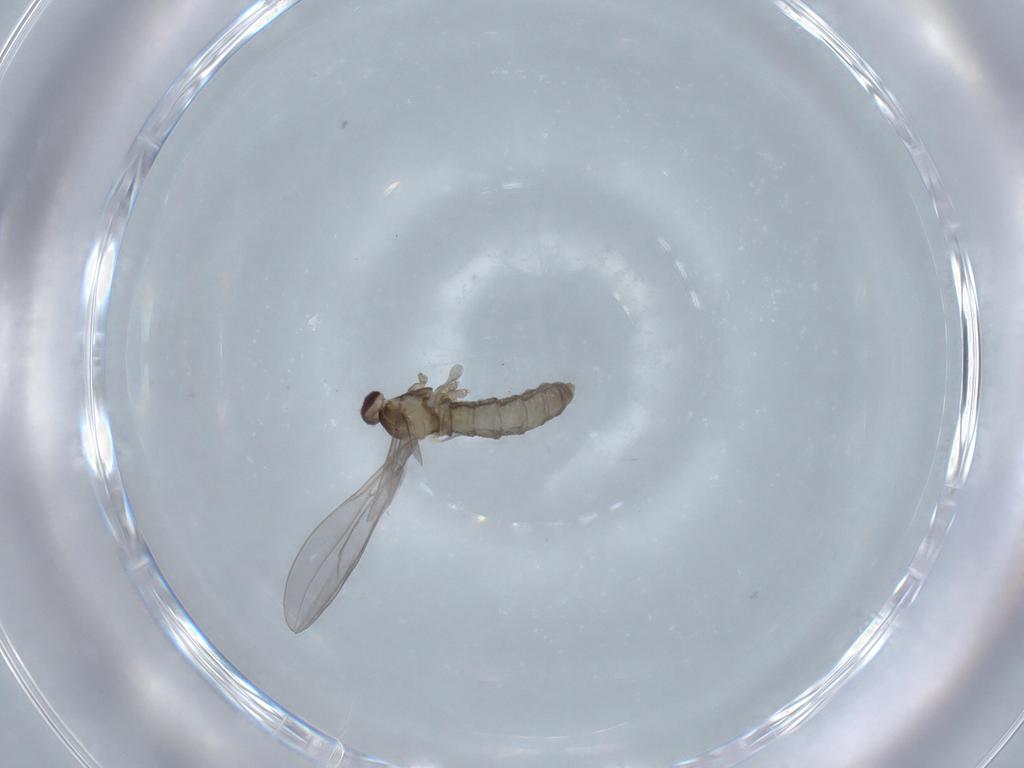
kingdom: Animalia
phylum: Arthropoda
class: Insecta
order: Diptera
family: Cecidomyiidae
